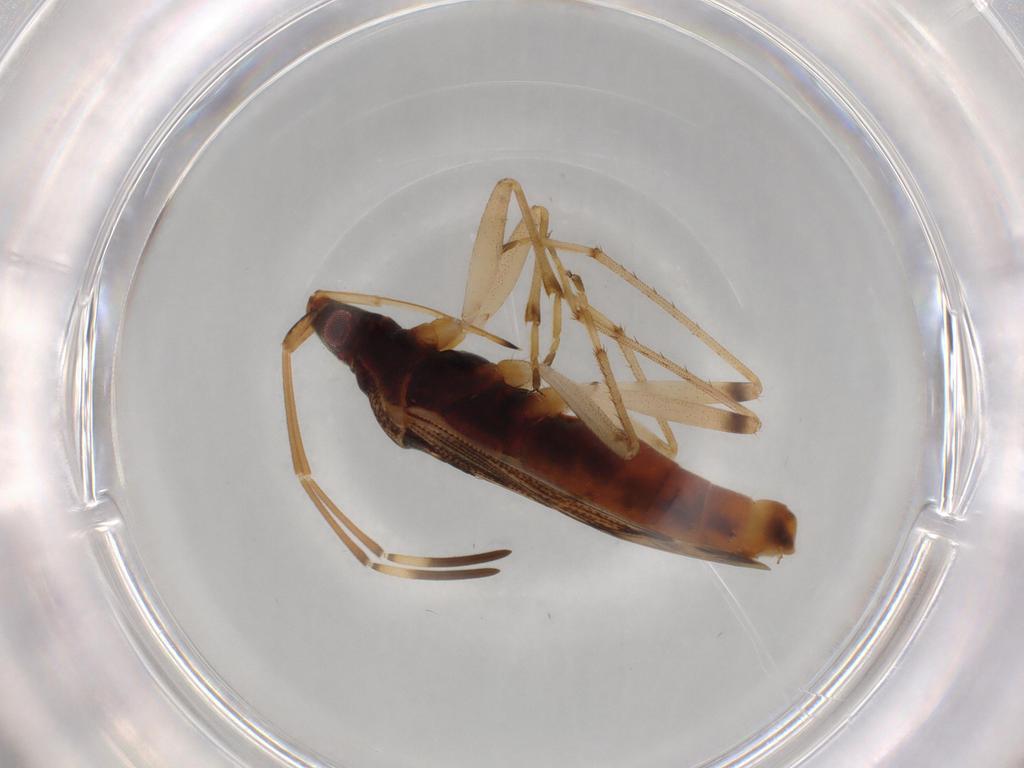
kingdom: Animalia
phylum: Arthropoda
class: Insecta
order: Hemiptera
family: Rhyparochromidae
